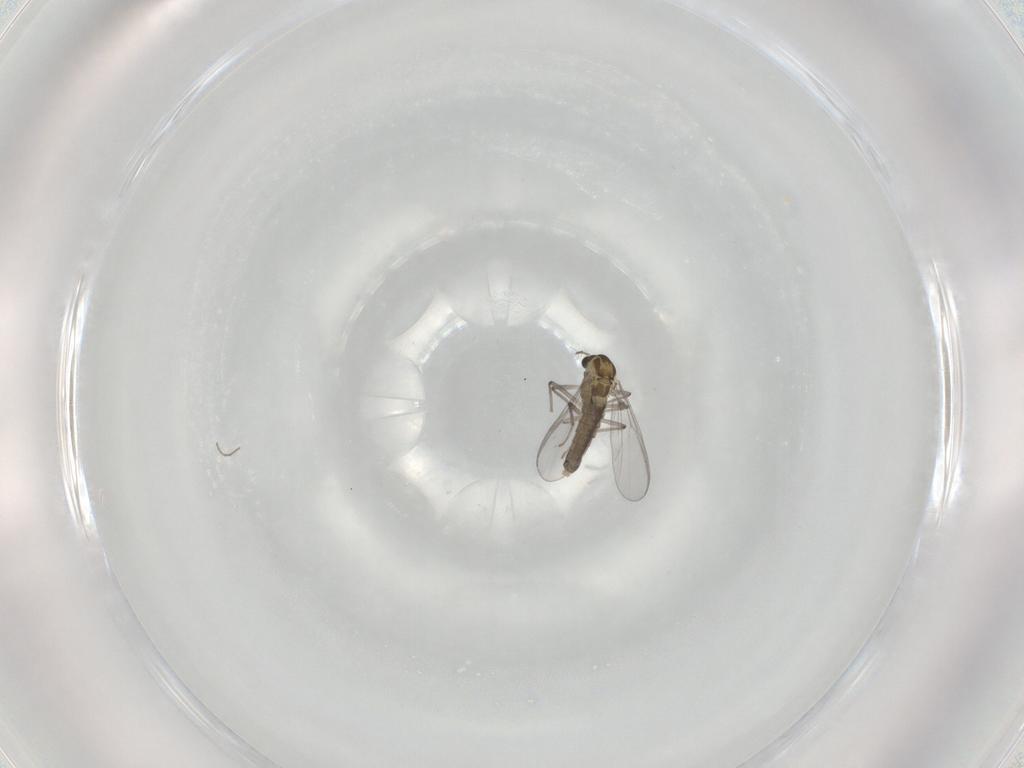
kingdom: Animalia
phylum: Arthropoda
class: Insecta
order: Diptera
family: Chironomidae
